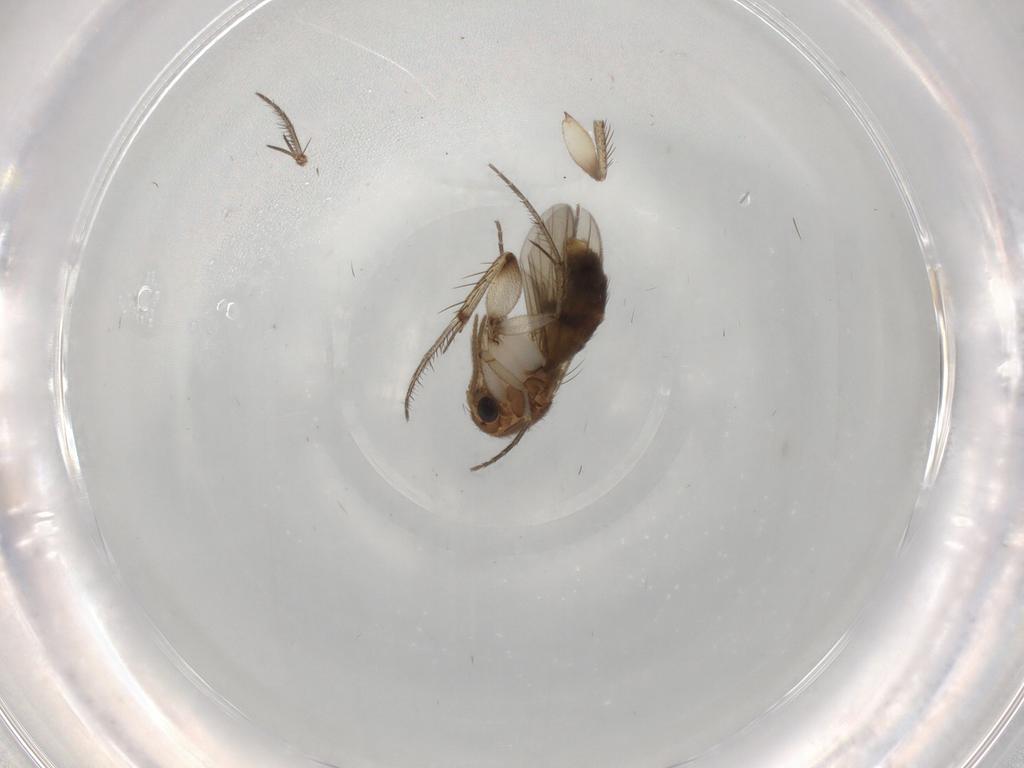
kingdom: Animalia
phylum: Arthropoda
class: Insecta
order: Diptera
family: Mycetophilidae
